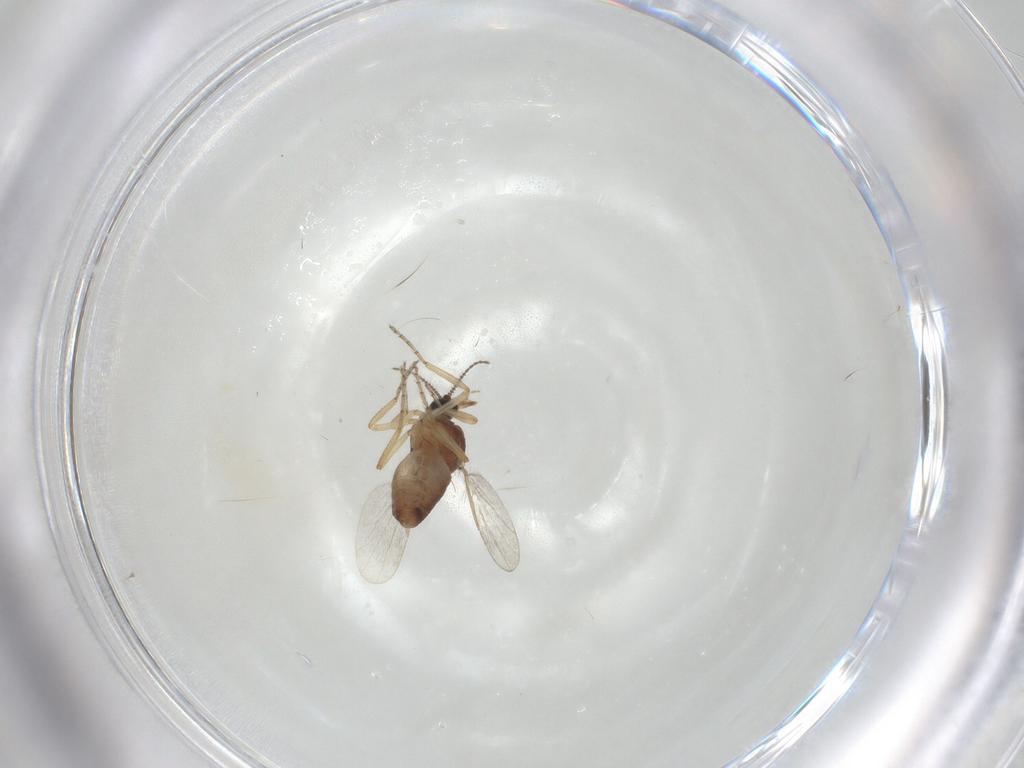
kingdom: Animalia
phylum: Arthropoda
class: Insecta
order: Diptera
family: Ceratopogonidae
